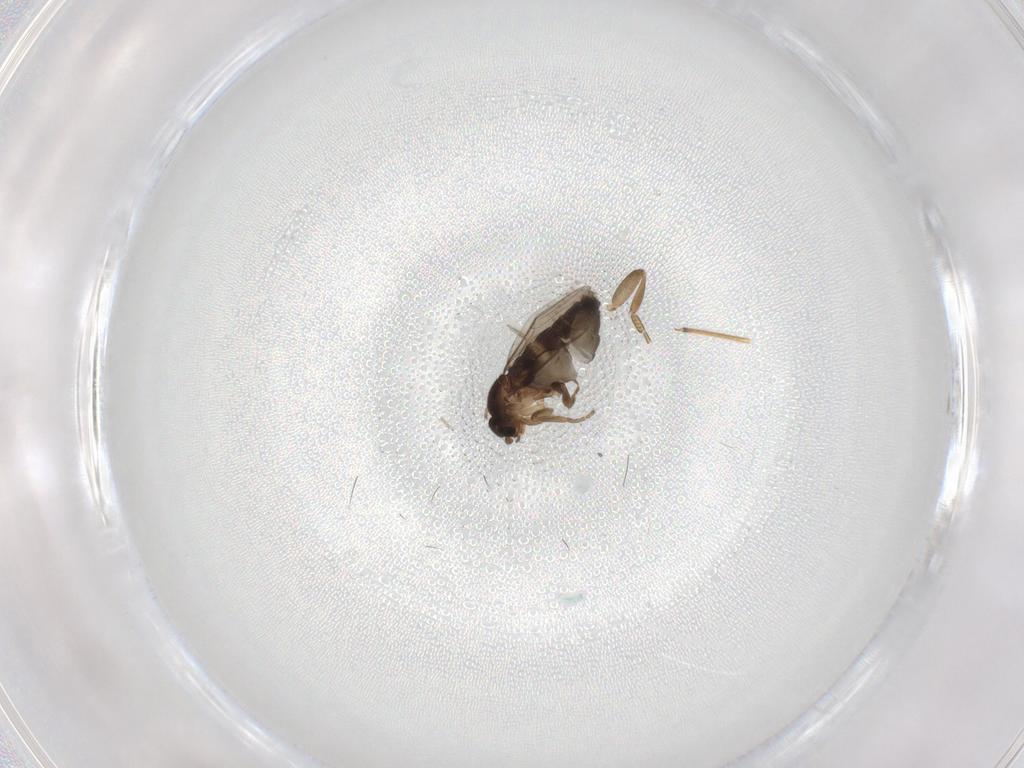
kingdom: Animalia
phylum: Arthropoda
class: Insecta
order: Diptera
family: Phoridae
